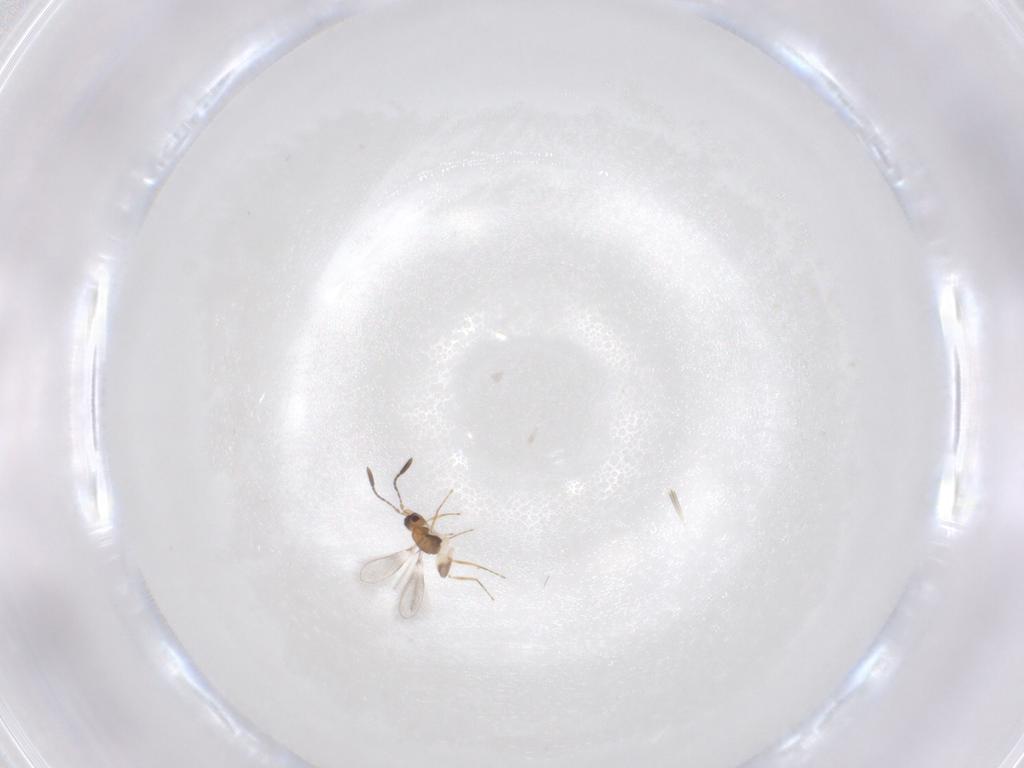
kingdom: Animalia
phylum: Arthropoda
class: Insecta
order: Hymenoptera
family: Mymaridae
